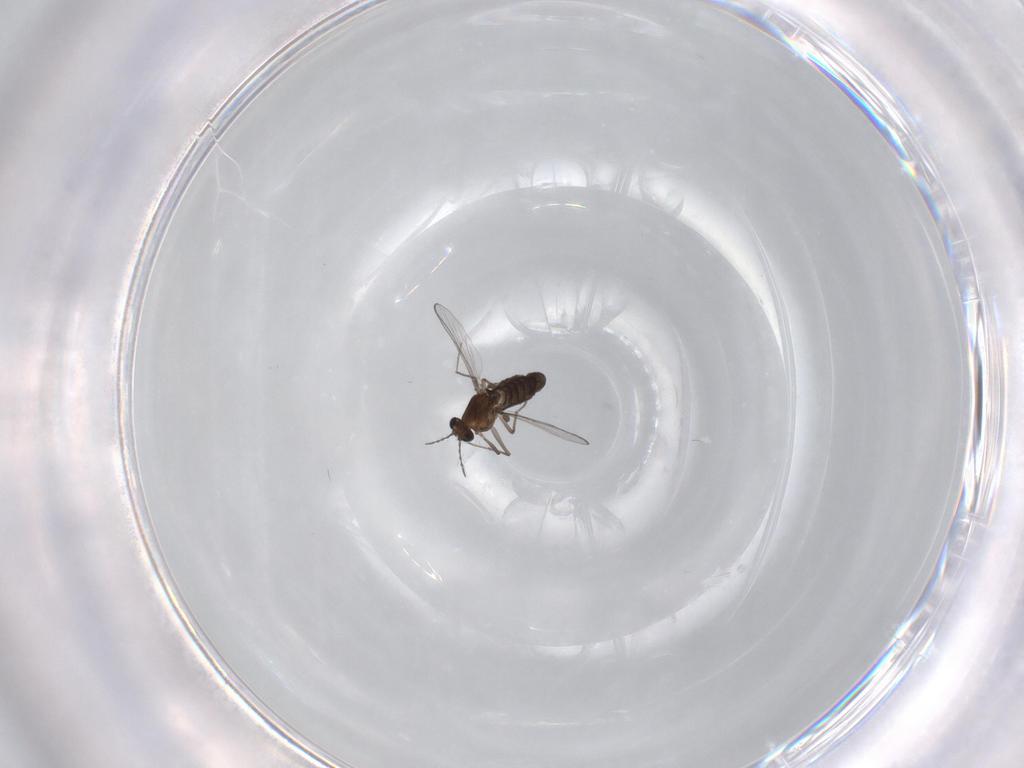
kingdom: Animalia
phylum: Arthropoda
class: Insecta
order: Diptera
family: Chironomidae
